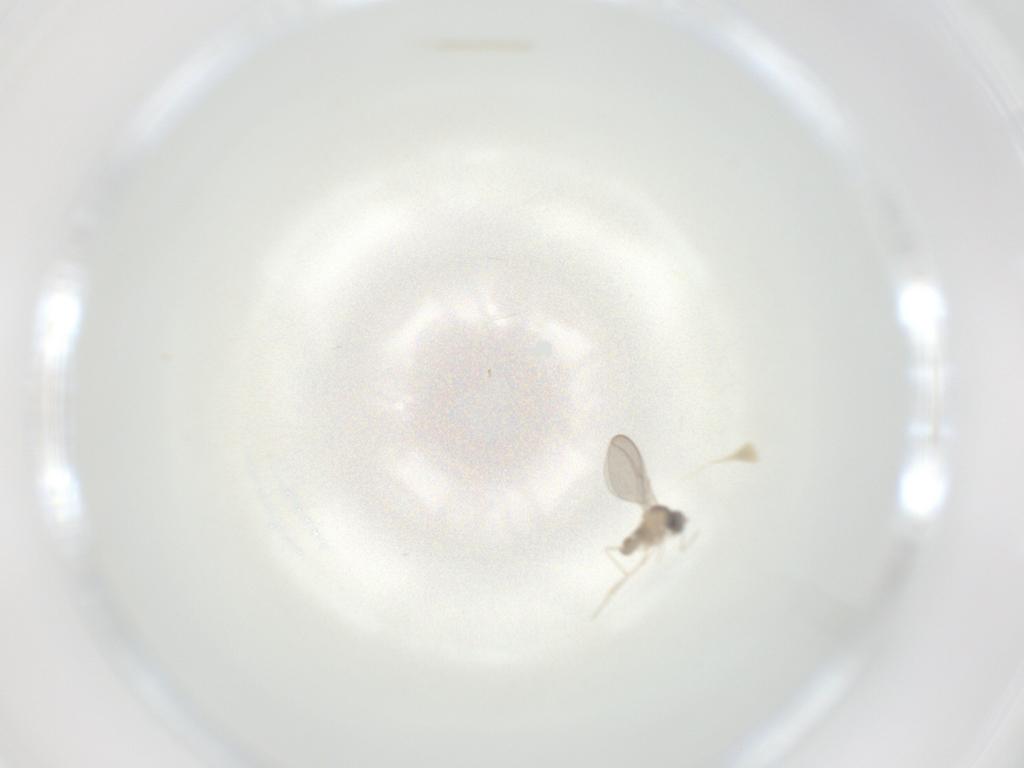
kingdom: Animalia
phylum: Arthropoda
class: Insecta
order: Diptera
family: Cecidomyiidae
